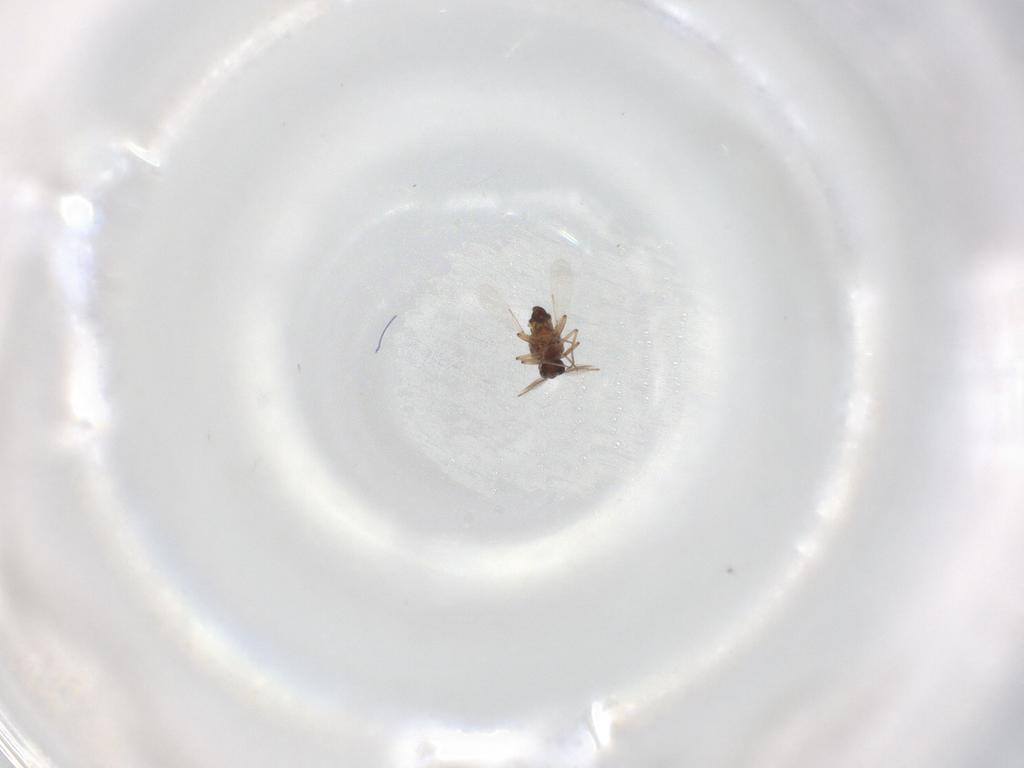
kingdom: Animalia
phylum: Arthropoda
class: Insecta
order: Diptera
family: Ceratopogonidae
